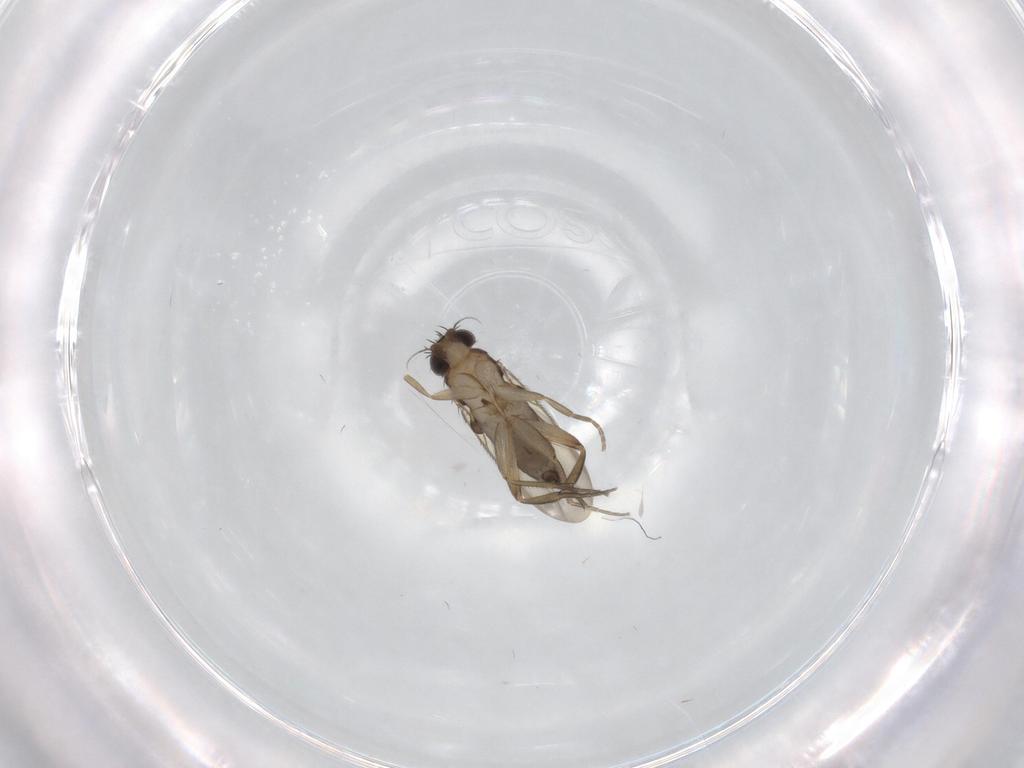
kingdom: Animalia
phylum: Arthropoda
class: Insecta
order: Diptera
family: Phoridae
